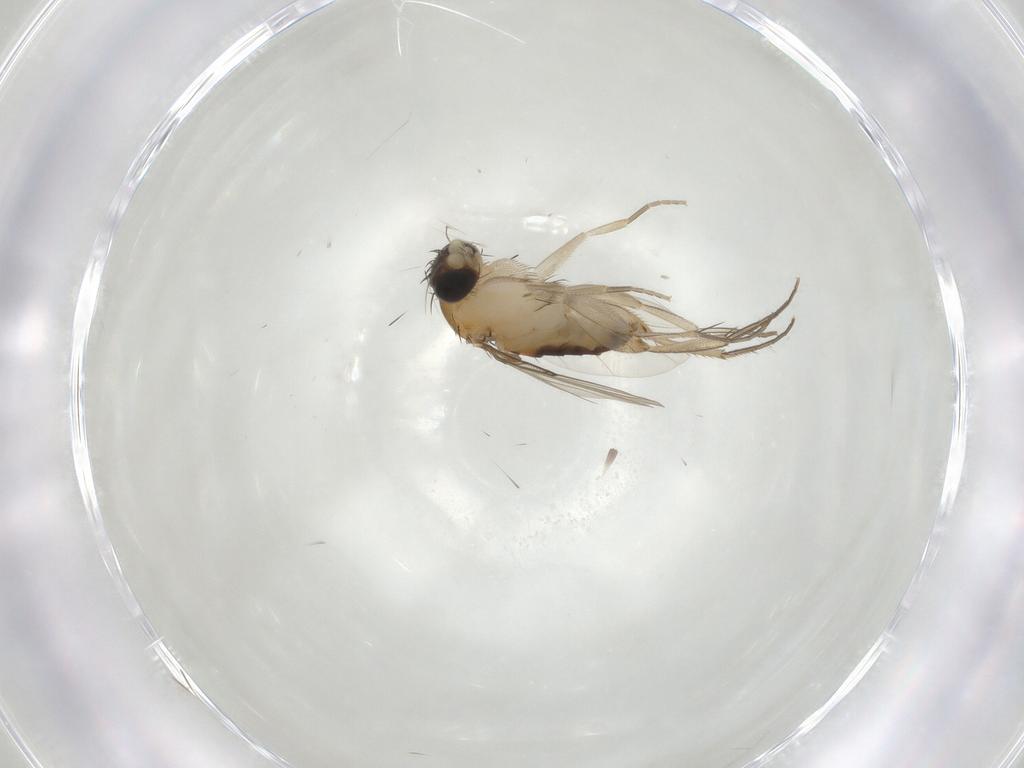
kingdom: Animalia
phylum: Arthropoda
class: Insecta
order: Diptera
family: Phoridae
